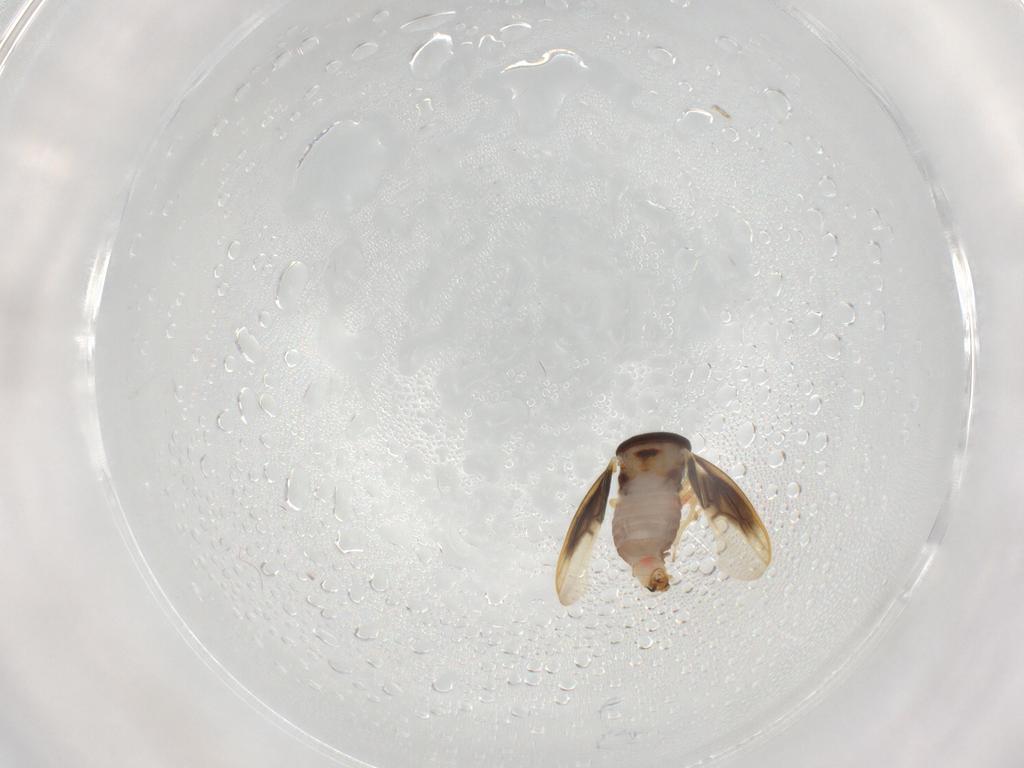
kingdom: Animalia
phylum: Arthropoda
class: Insecta
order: Hemiptera
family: Schizopteridae
